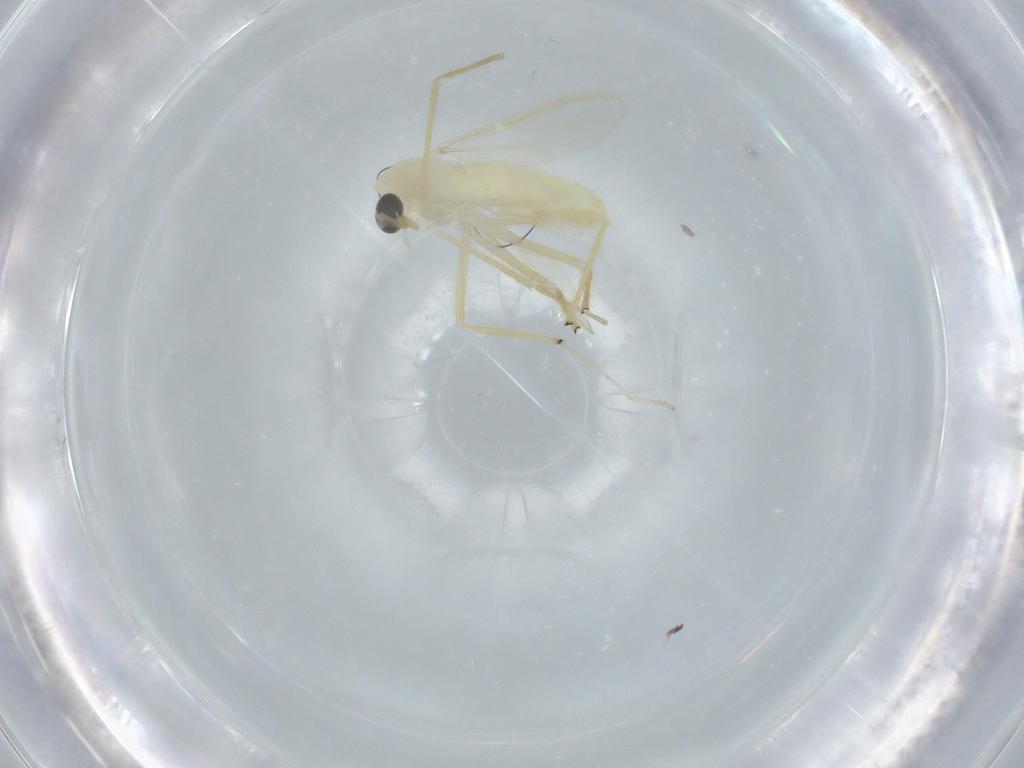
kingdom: Animalia
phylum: Arthropoda
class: Insecta
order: Diptera
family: Chironomidae
